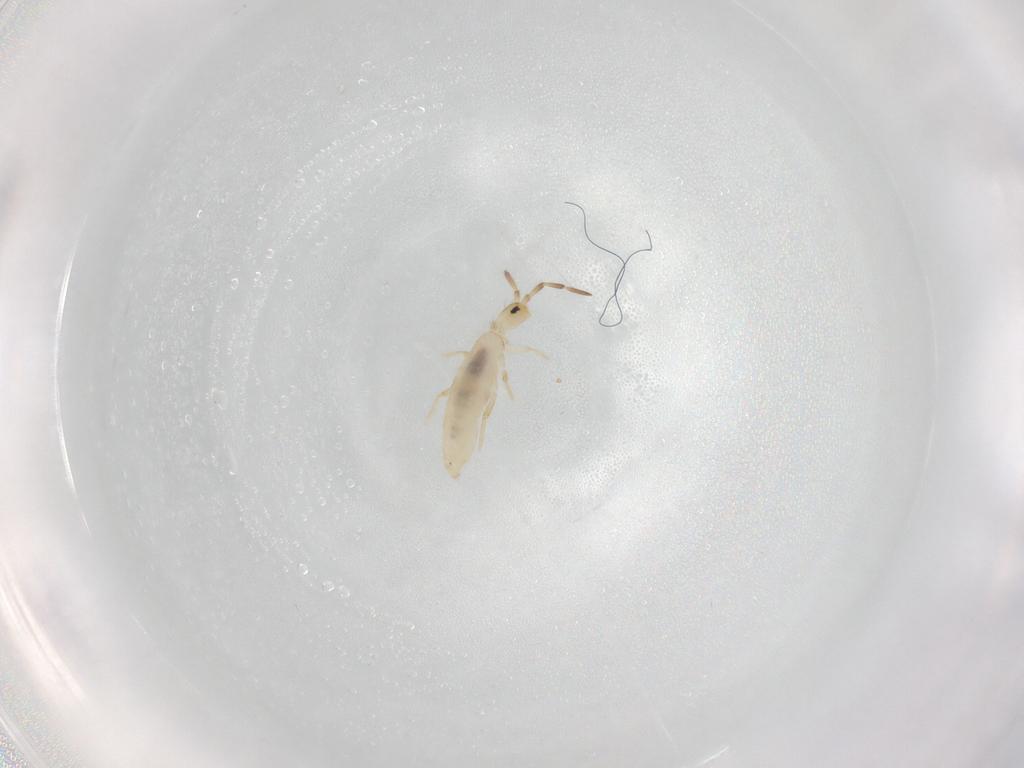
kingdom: Animalia
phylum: Arthropoda
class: Collembola
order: Entomobryomorpha
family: Entomobryidae
